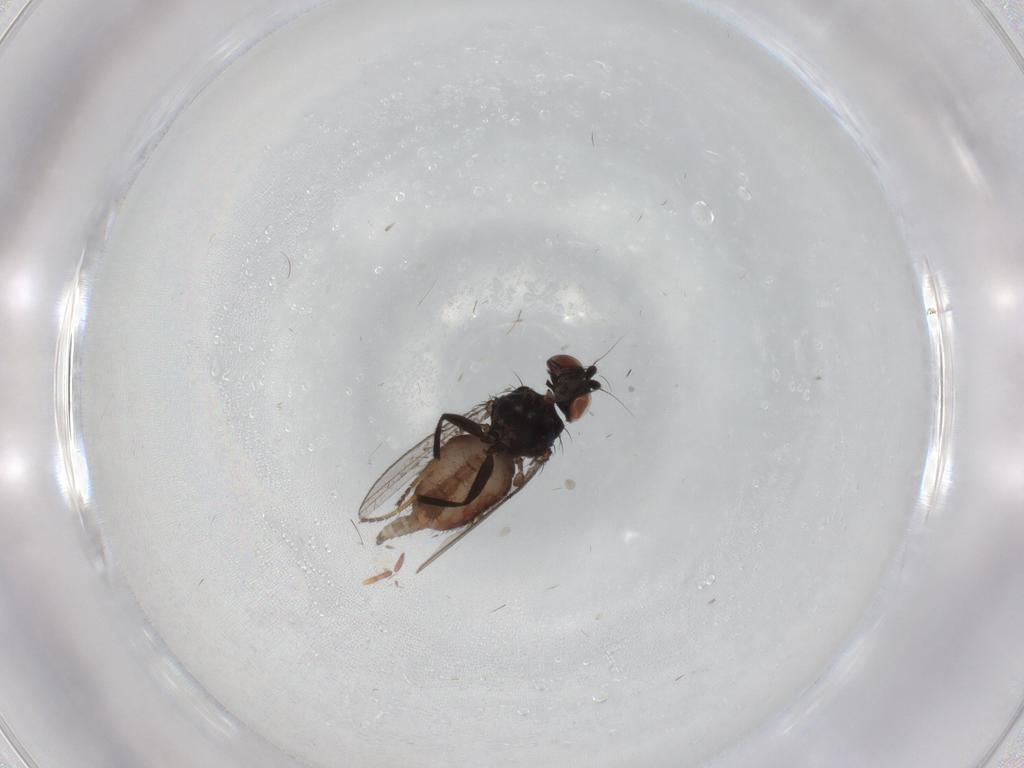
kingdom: Animalia
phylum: Arthropoda
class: Insecta
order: Diptera
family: Milichiidae
